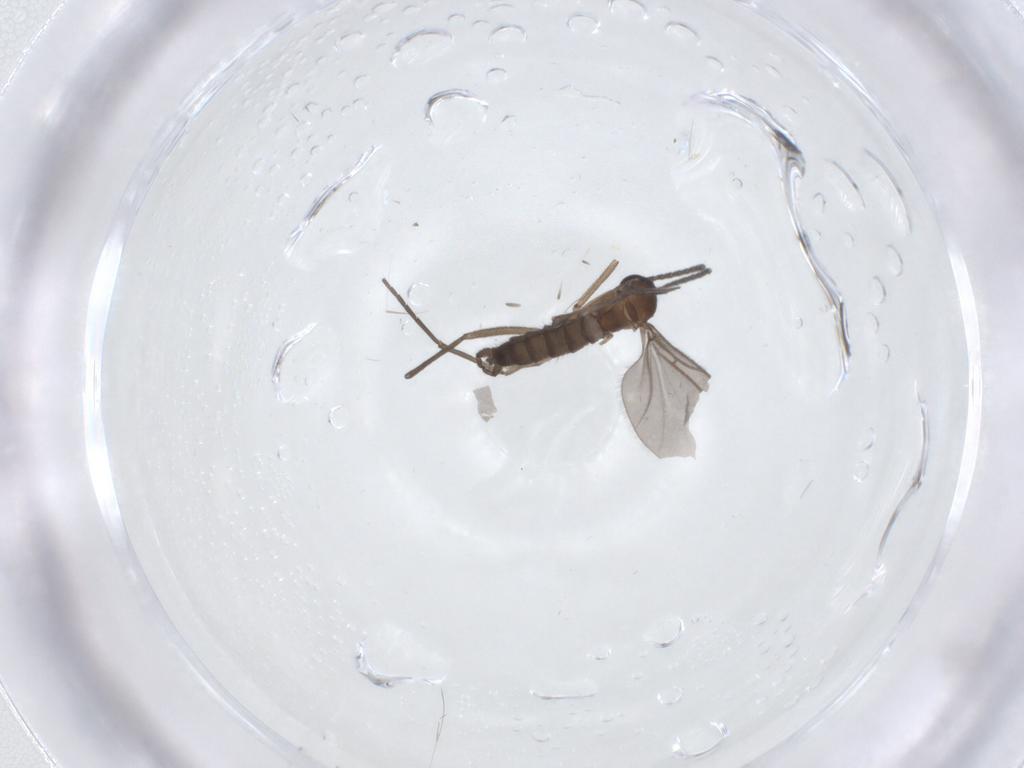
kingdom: Animalia
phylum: Arthropoda
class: Insecta
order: Diptera
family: Sciaridae
